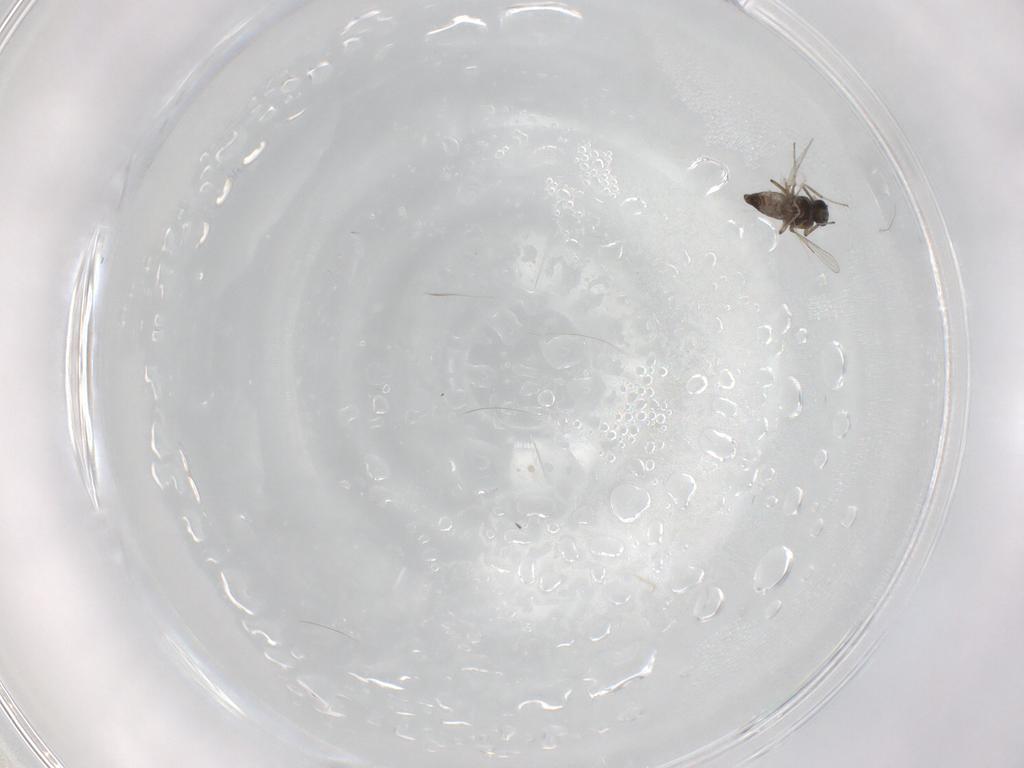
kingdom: Animalia
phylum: Arthropoda
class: Insecta
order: Diptera
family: Ceratopogonidae
